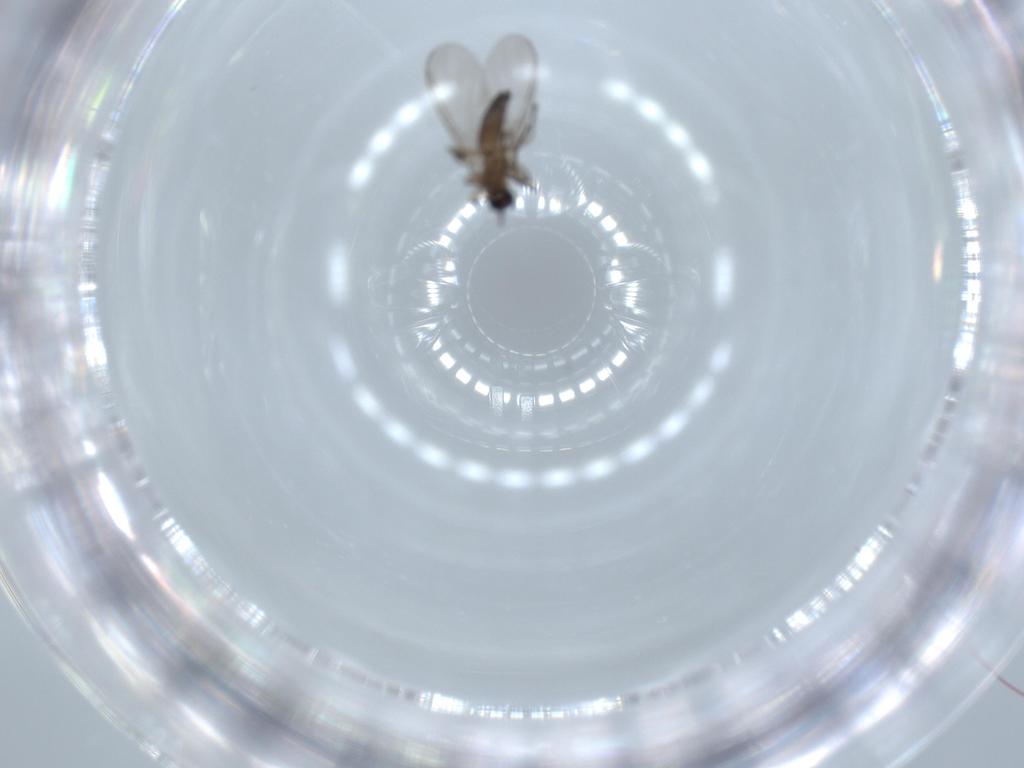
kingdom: Animalia
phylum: Arthropoda
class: Insecta
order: Diptera
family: Sciaridae
